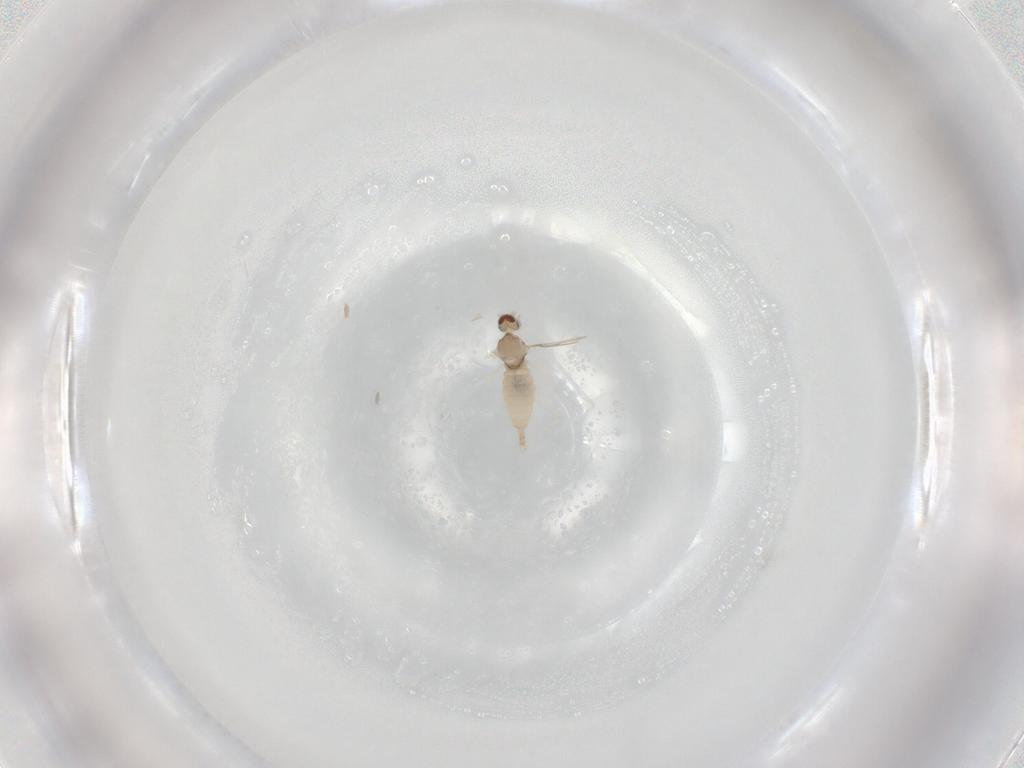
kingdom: Animalia
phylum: Arthropoda
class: Insecta
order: Diptera
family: Cecidomyiidae
